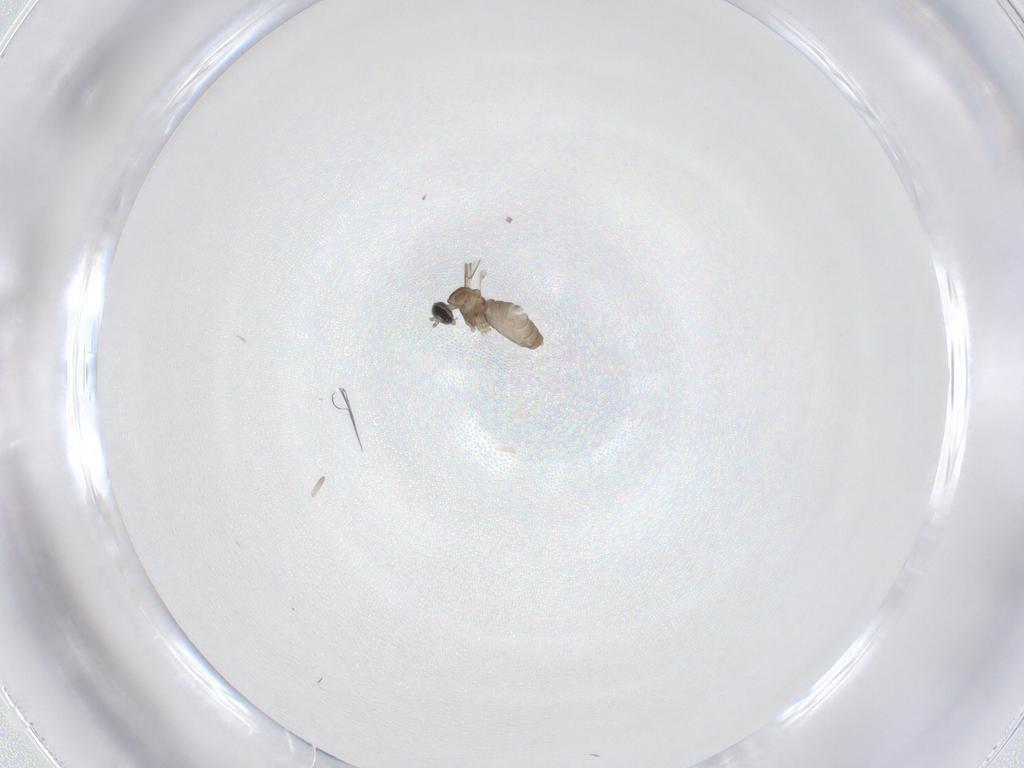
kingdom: Animalia
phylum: Arthropoda
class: Insecta
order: Diptera
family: Cecidomyiidae
